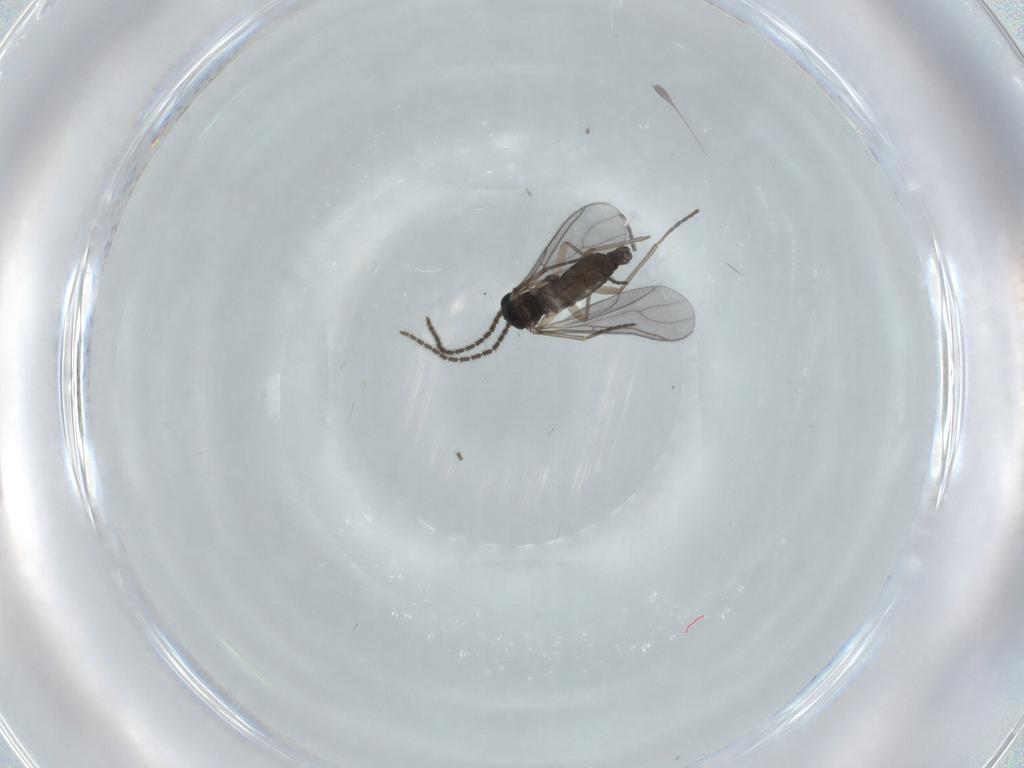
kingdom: Animalia
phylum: Arthropoda
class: Insecta
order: Diptera
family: Sciaridae
